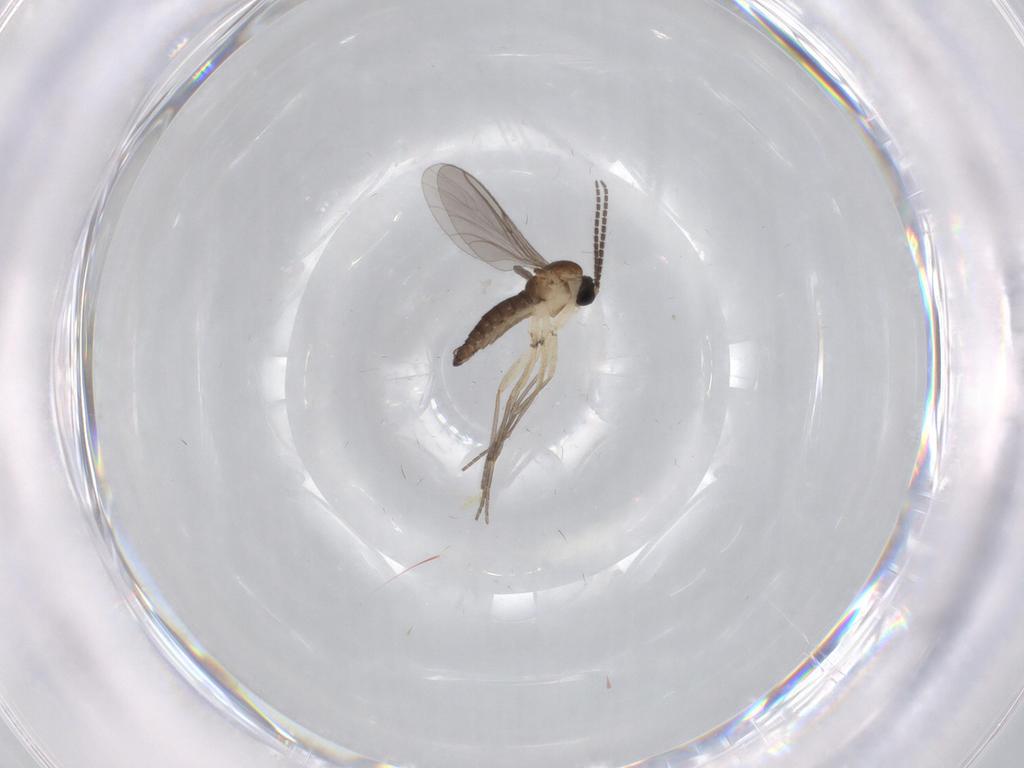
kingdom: Animalia
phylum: Arthropoda
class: Insecta
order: Diptera
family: Sciaridae
